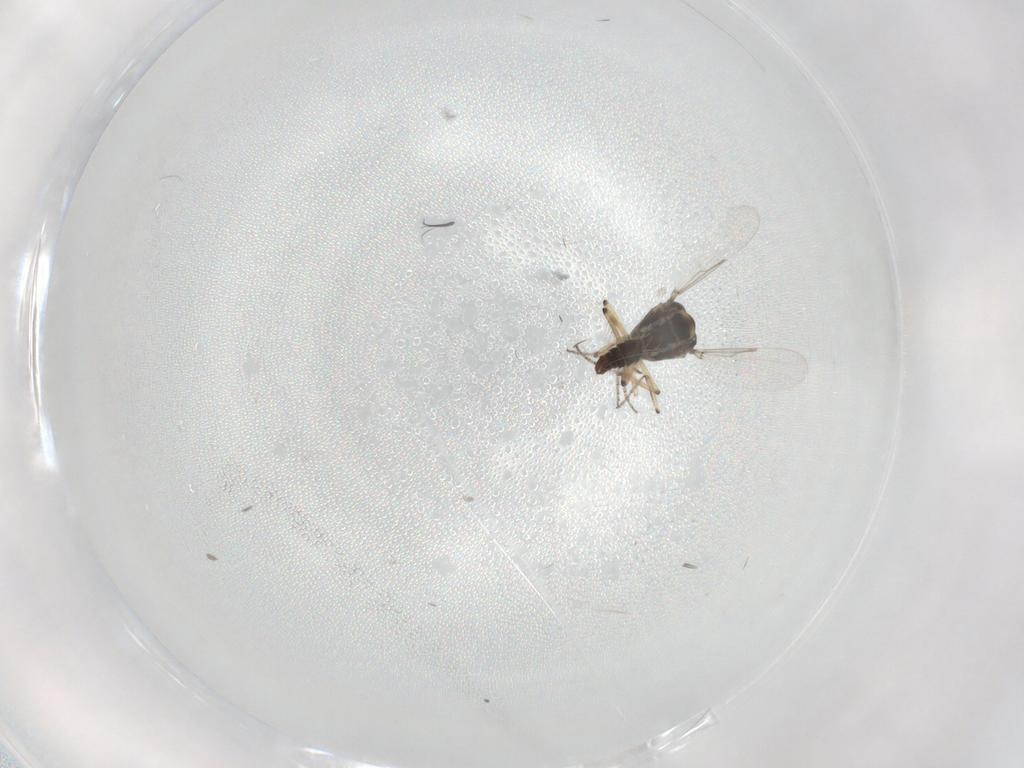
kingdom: Animalia
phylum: Arthropoda
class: Insecta
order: Diptera
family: Ceratopogonidae
